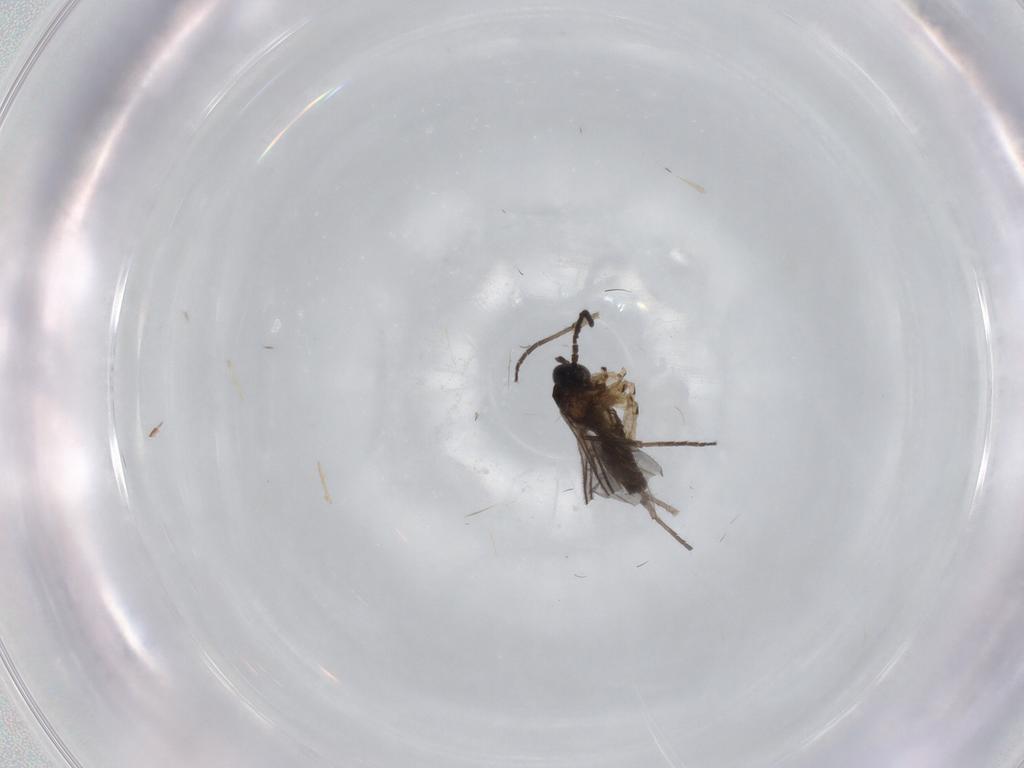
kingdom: Animalia
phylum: Arthropoda
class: Insecta
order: Diptera
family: Sciaridae
